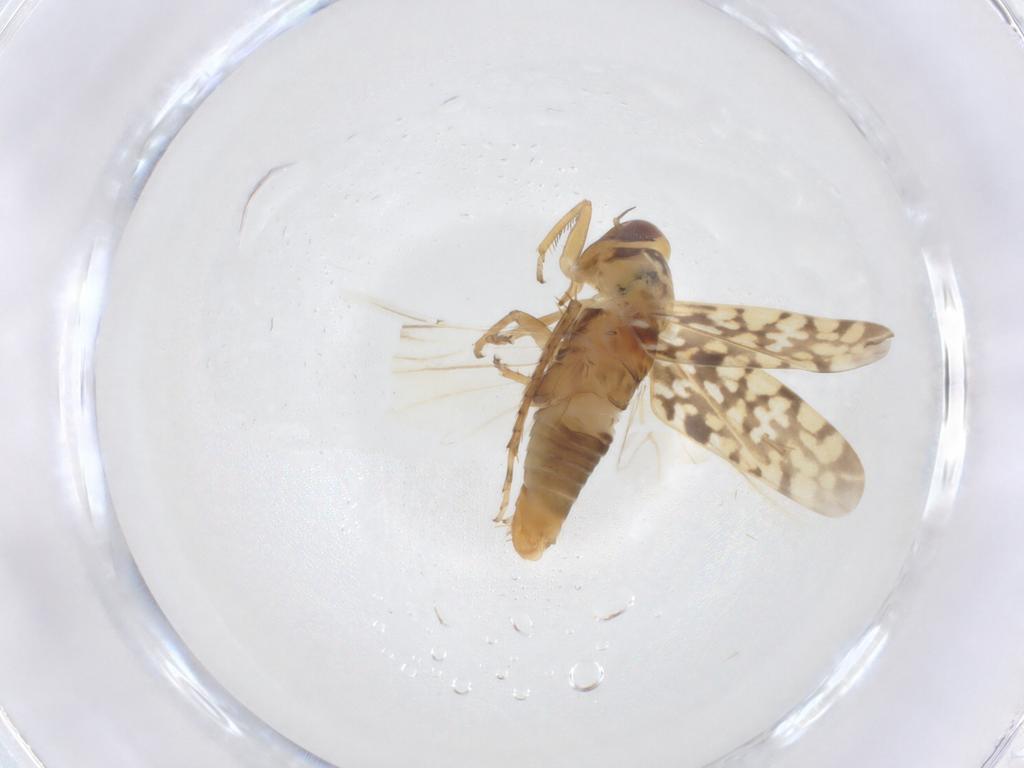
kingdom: Animalia
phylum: Arthropoda
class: Insecta
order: Hemiptera
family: Cicadellidae
